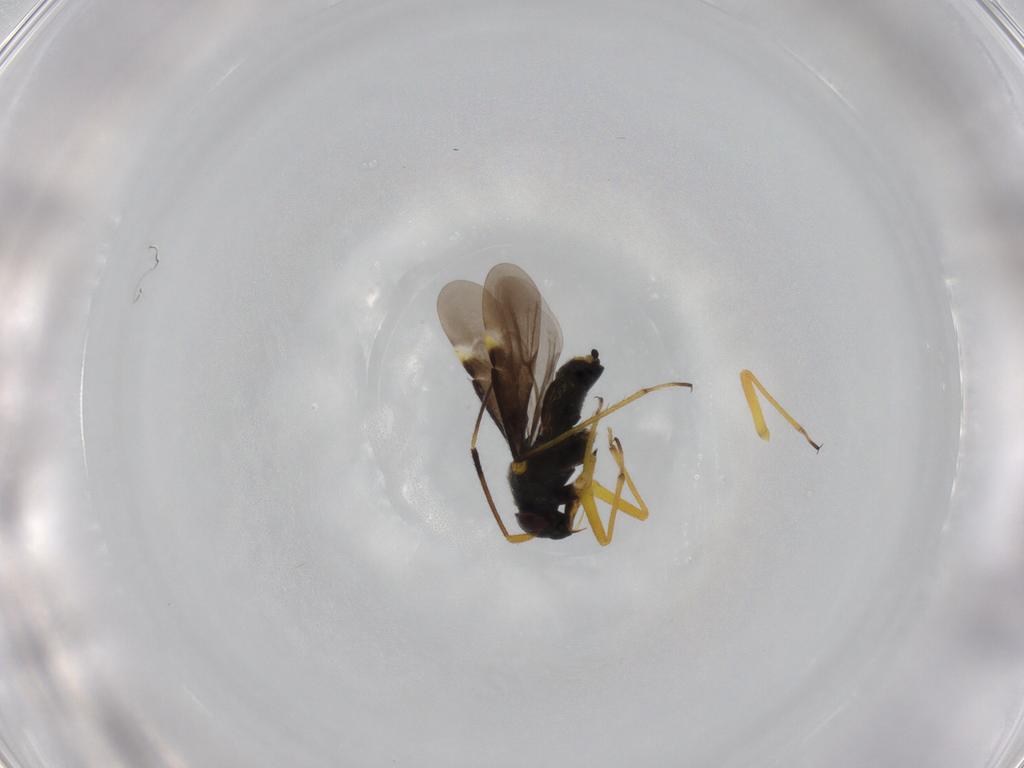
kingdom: Animalia
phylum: Arthropoda
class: Insecta
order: Hemiptera
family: Miridae
